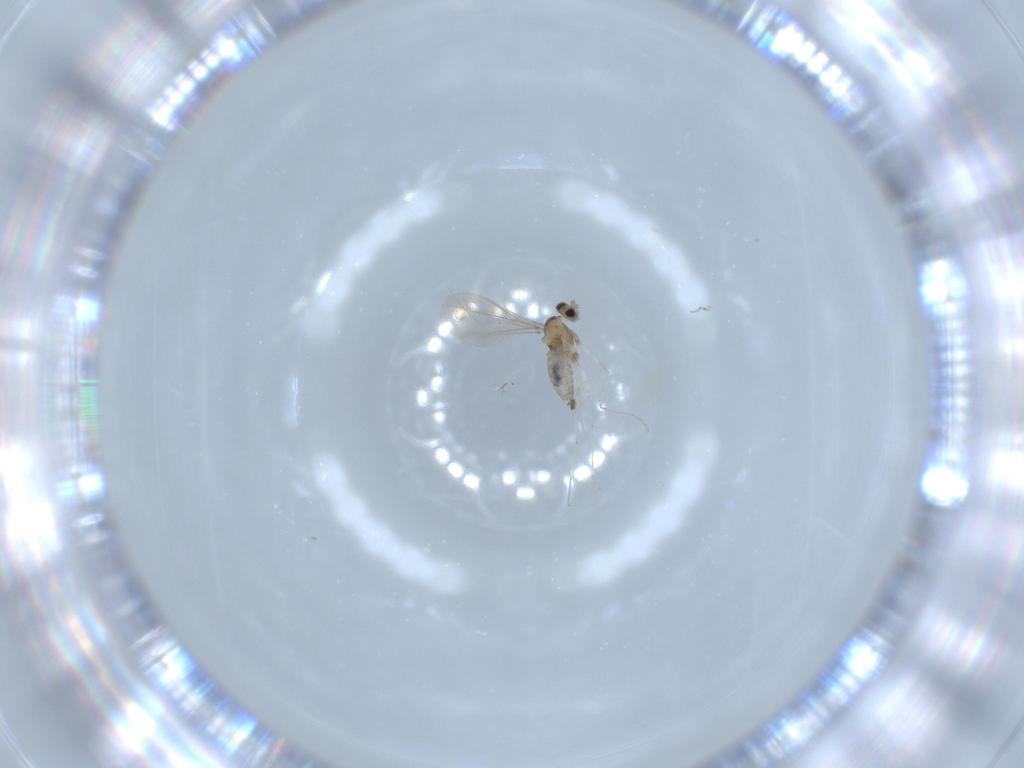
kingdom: Animalia
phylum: Arthropoda
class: Insecta
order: Diptera
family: Cecidomyiidae
